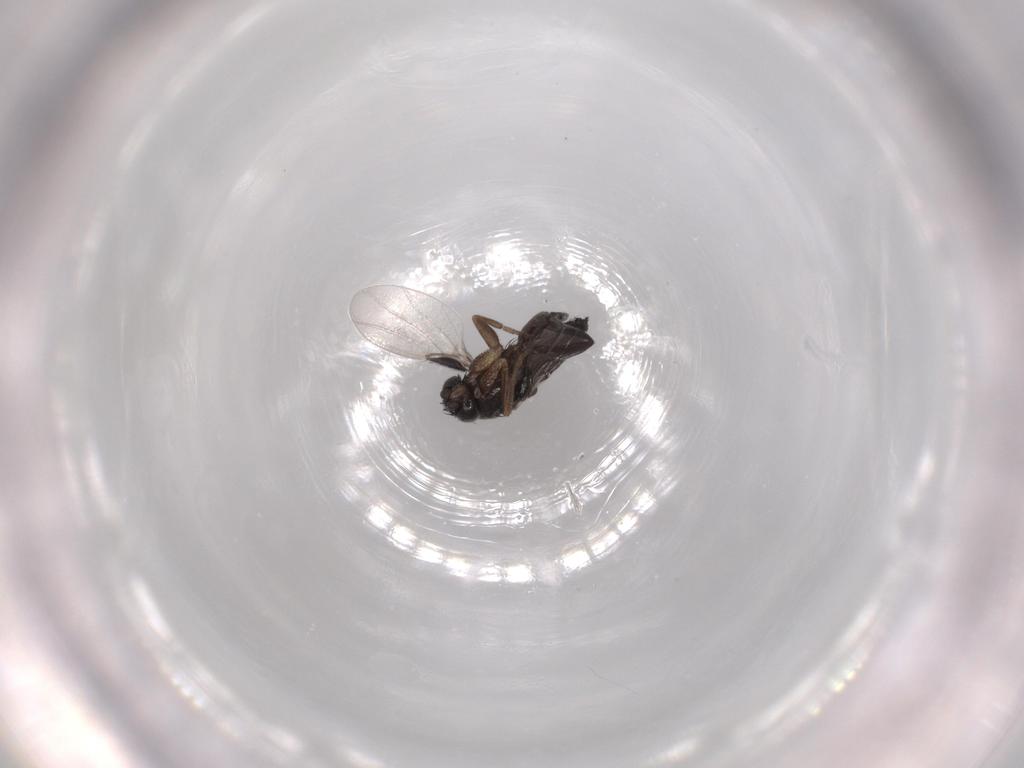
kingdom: Animalia
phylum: Arthropoda
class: Insecta
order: Diptera
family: Phoridae
